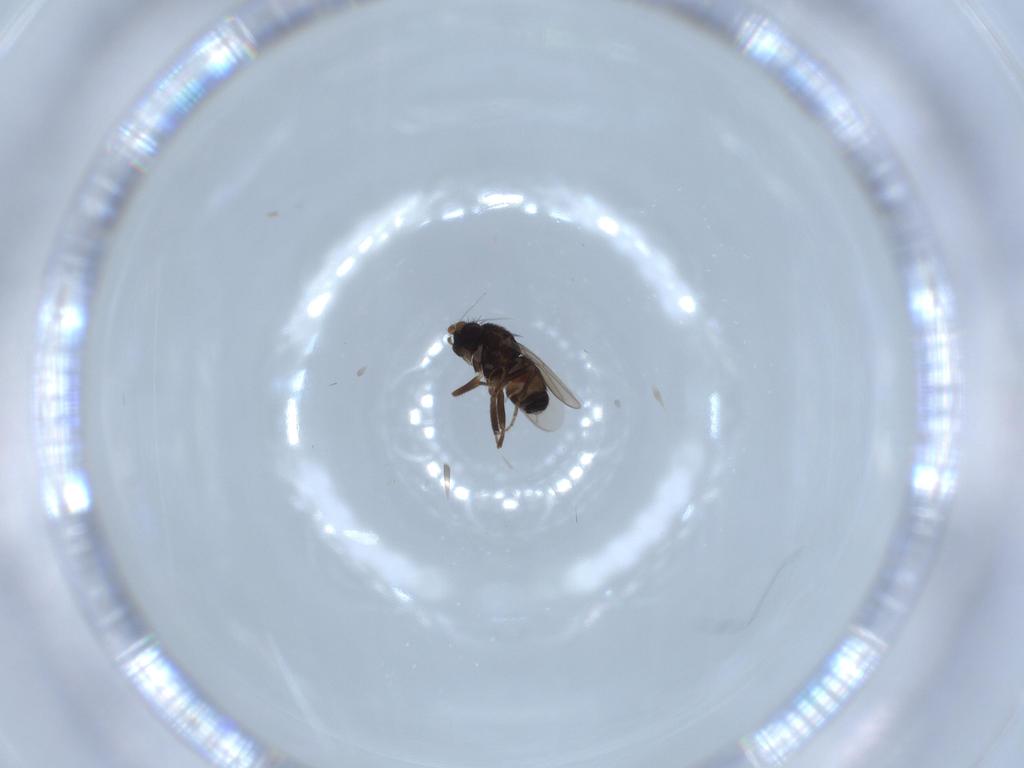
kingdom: Animalia
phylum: Arthropoda
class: Insecta
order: Diptera
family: Sphaeroceridae
